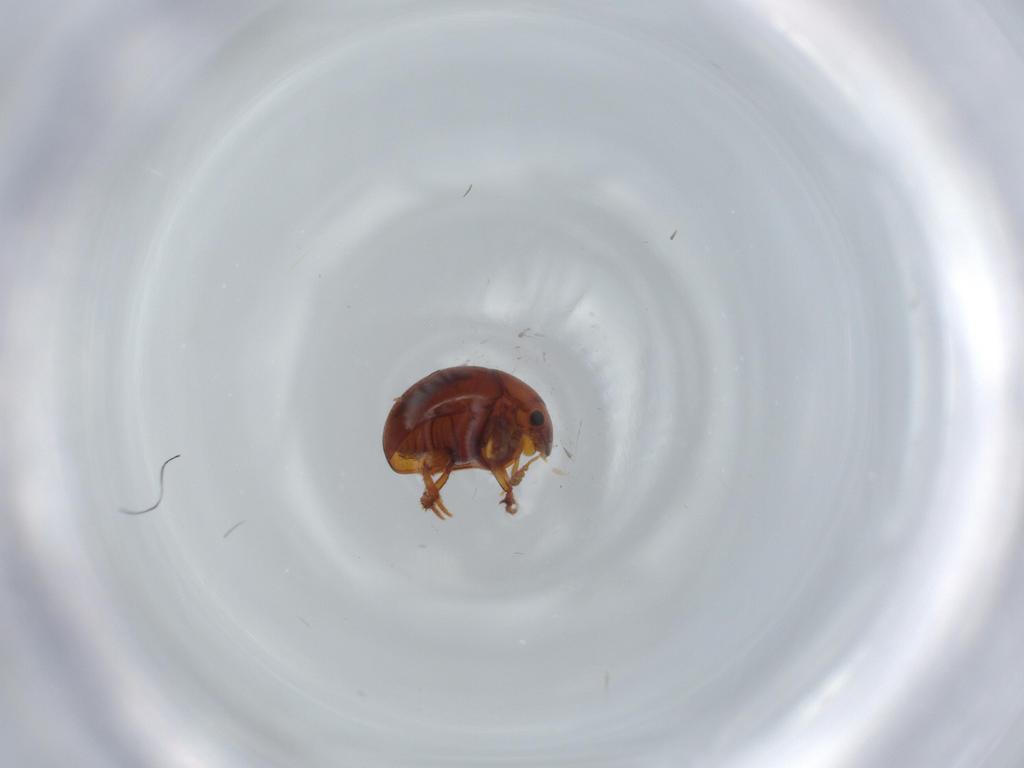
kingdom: Animalia
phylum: Arthropoda
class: Insecta
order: Coleoptera
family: Leiodidae
